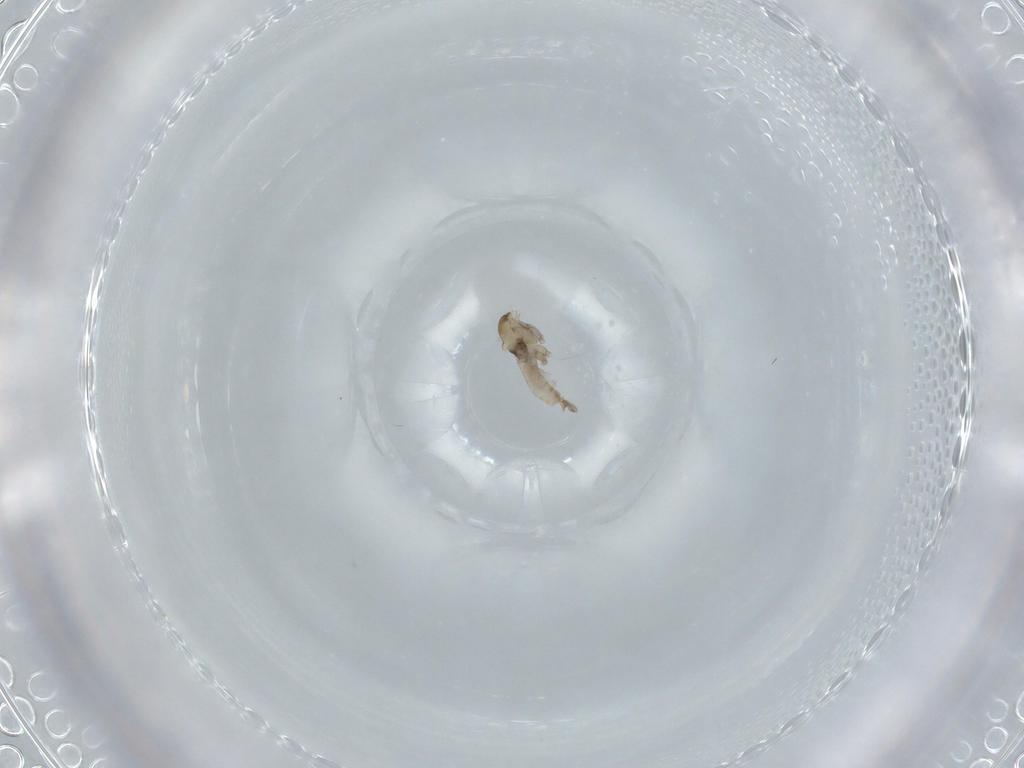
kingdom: Animalia
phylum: Arthropoda
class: Insecta
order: Diptera
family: Cecidomyiidae
